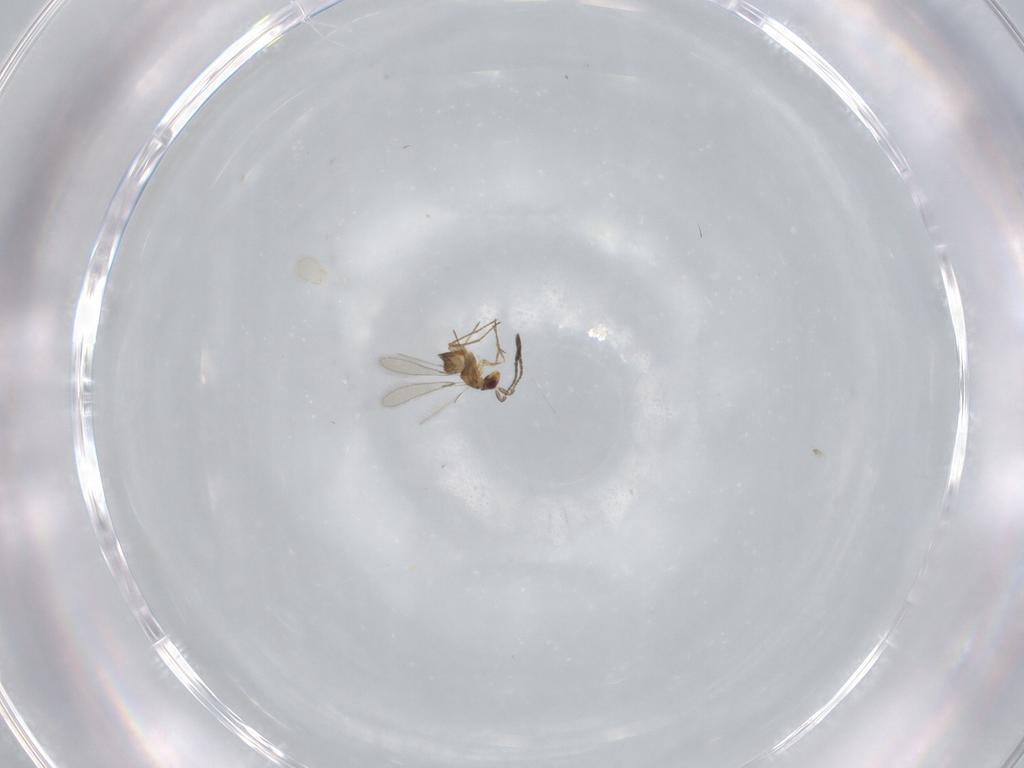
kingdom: Animalia
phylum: Arthropoda
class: Insecta
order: Hymenoptera
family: Mymaridae
